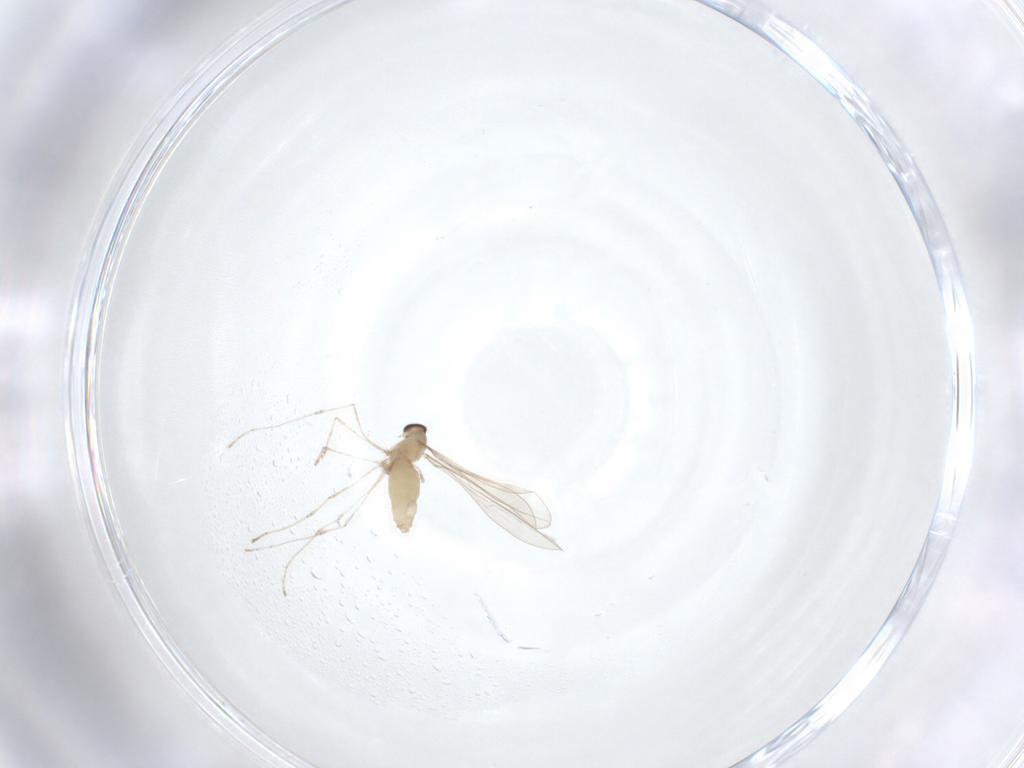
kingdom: Animalia
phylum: Arthropoda
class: Insecta
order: Diptera
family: Cecidomyiidae
